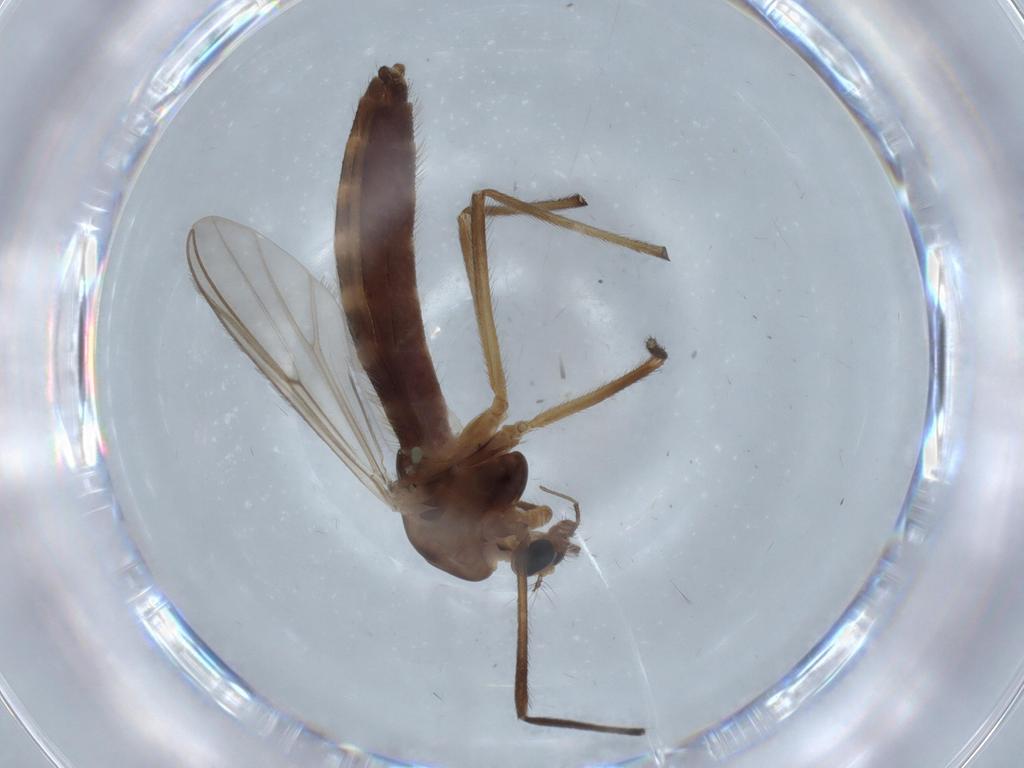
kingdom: Animalia
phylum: Arthropoda
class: Insecta
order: Diptera
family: Chironomidae
